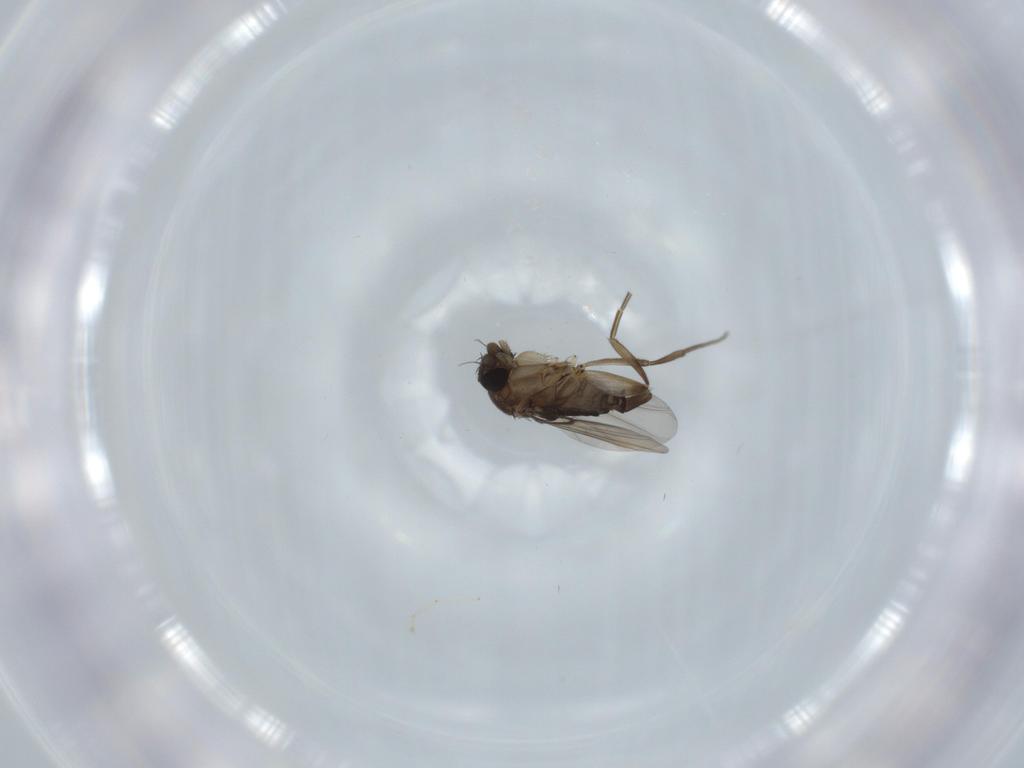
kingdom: Animalia
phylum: Arthropoda
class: Insecta
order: Diptera
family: Phoridae
